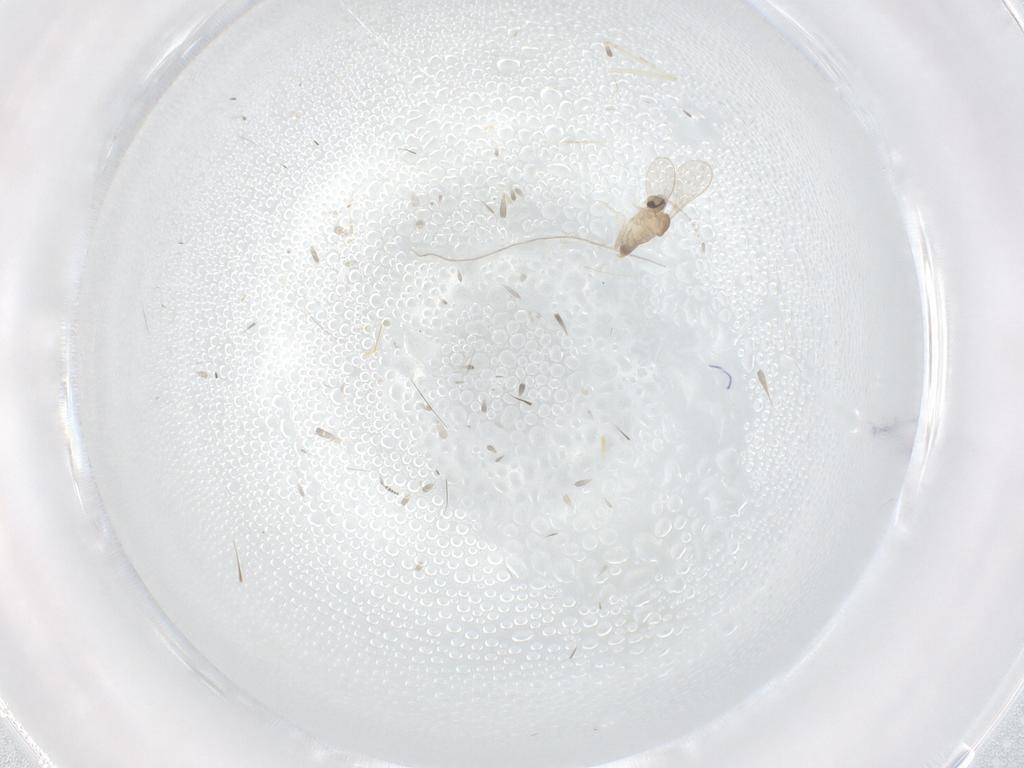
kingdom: Animalia
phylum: Arthropoda
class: Insecta
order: Diptera
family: Cecidomyiidae
